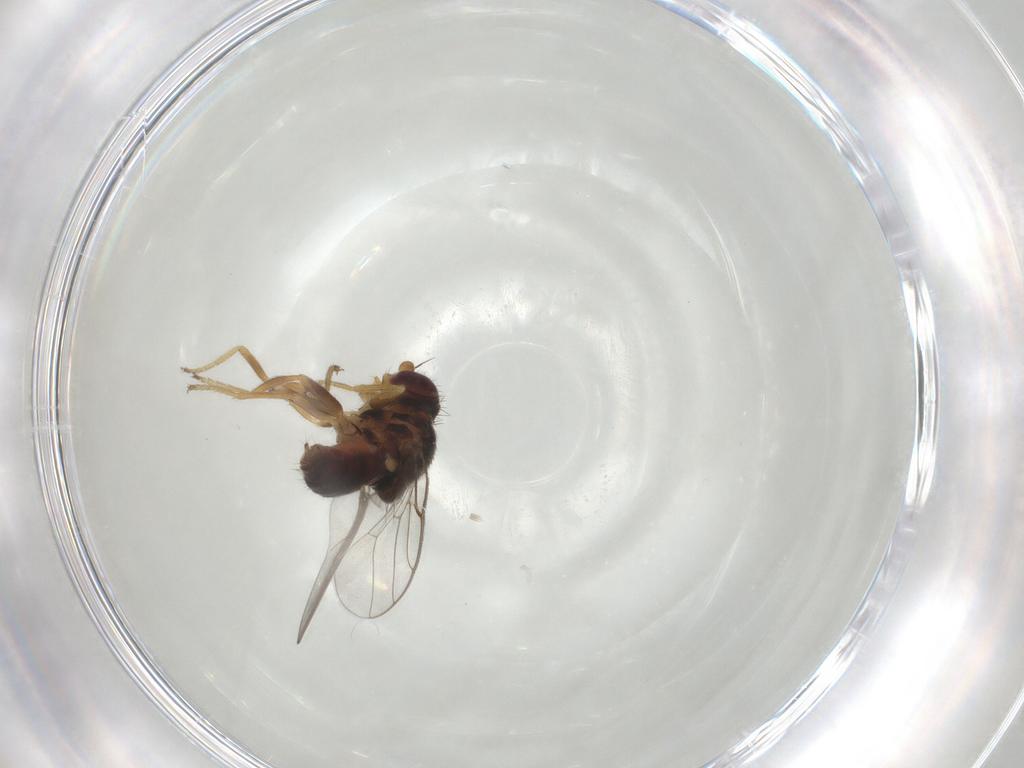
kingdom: Animalia
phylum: Arthropoda
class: Insecta
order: Diptera
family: Chloropidae
